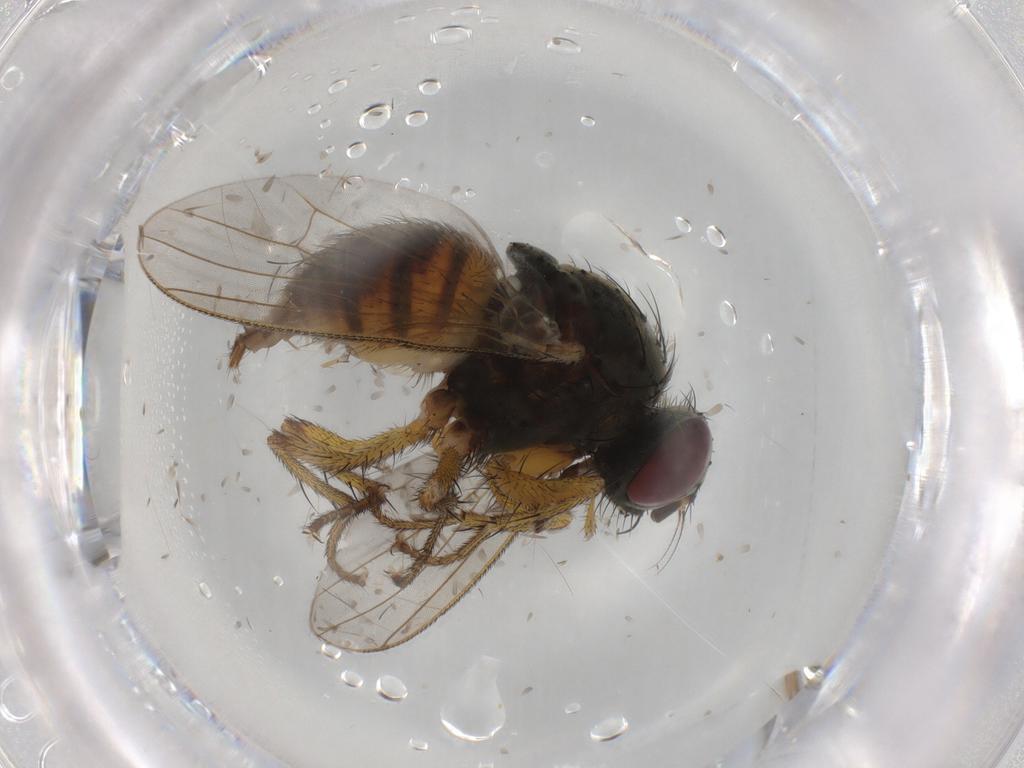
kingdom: Animalia
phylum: Arthropoda
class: Insecta
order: Diptera
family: Muscidae
